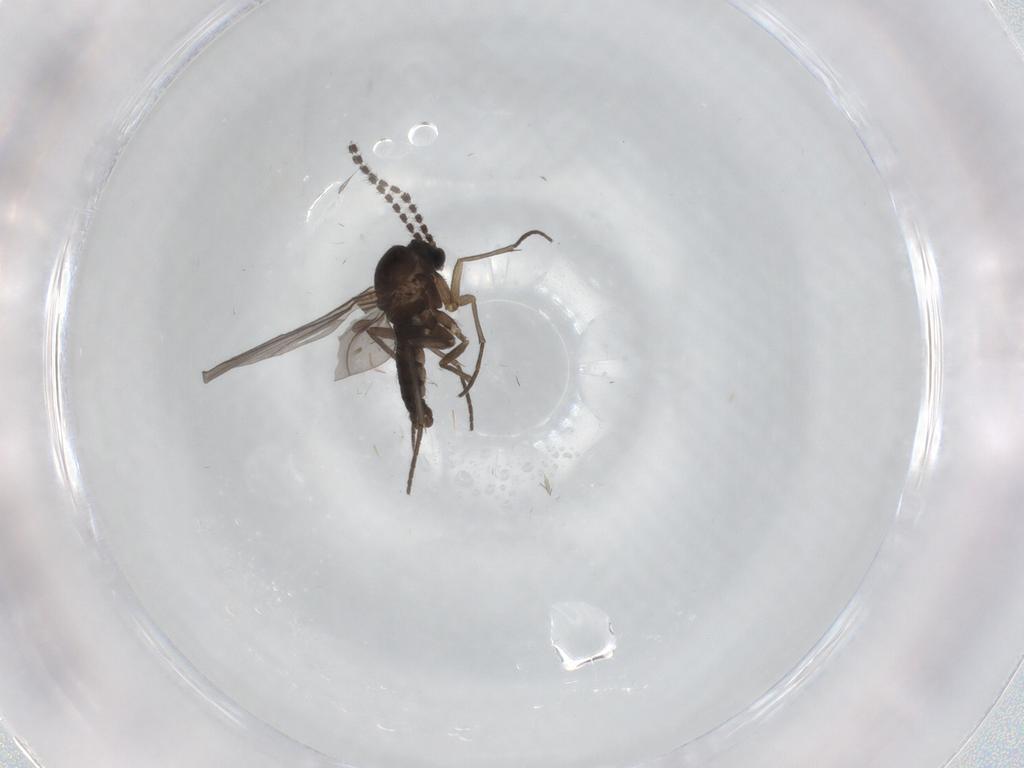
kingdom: Animalia
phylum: Arthropoda
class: Insecta
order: Diptera
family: Sciaridae
